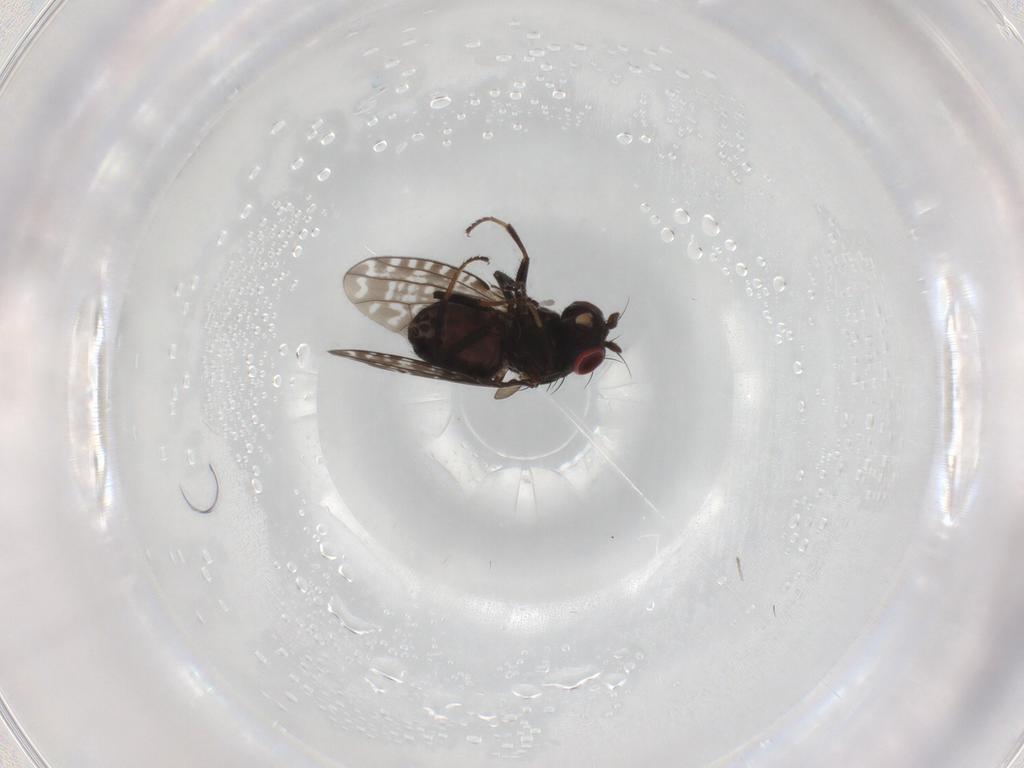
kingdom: Animalia
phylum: Arthropoda
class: Insecta
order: Diptera
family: Ephydridae
